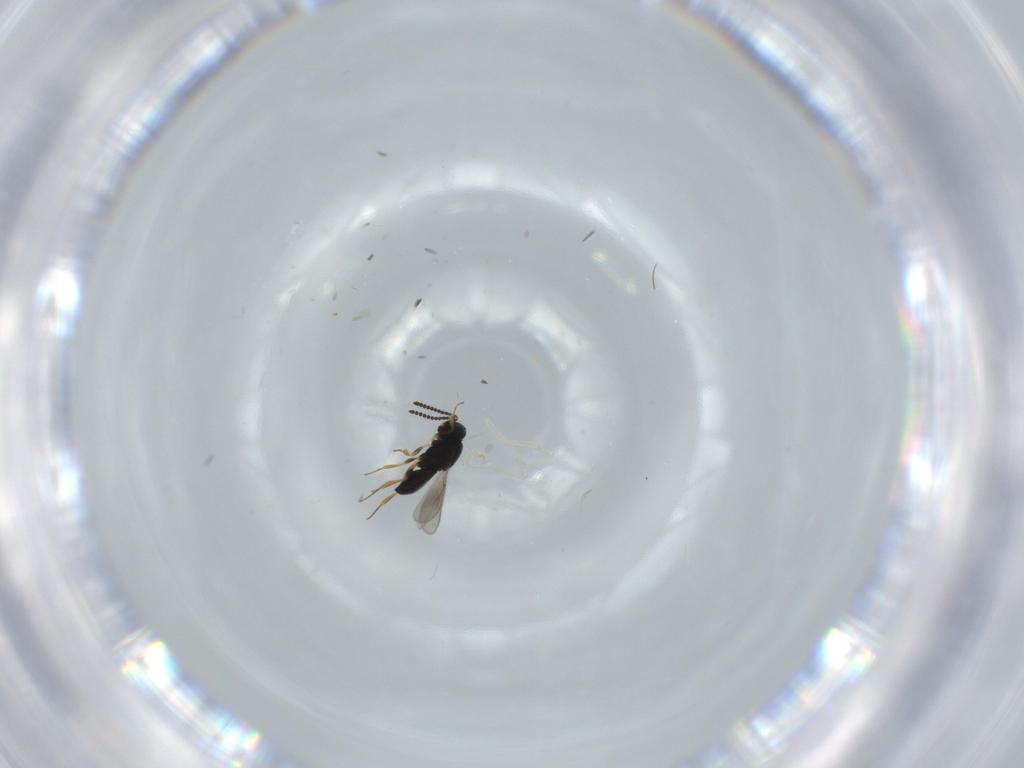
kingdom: Animalia
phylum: Arthropoda
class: Insecta
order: Hymenoptera
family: Scelionidae
